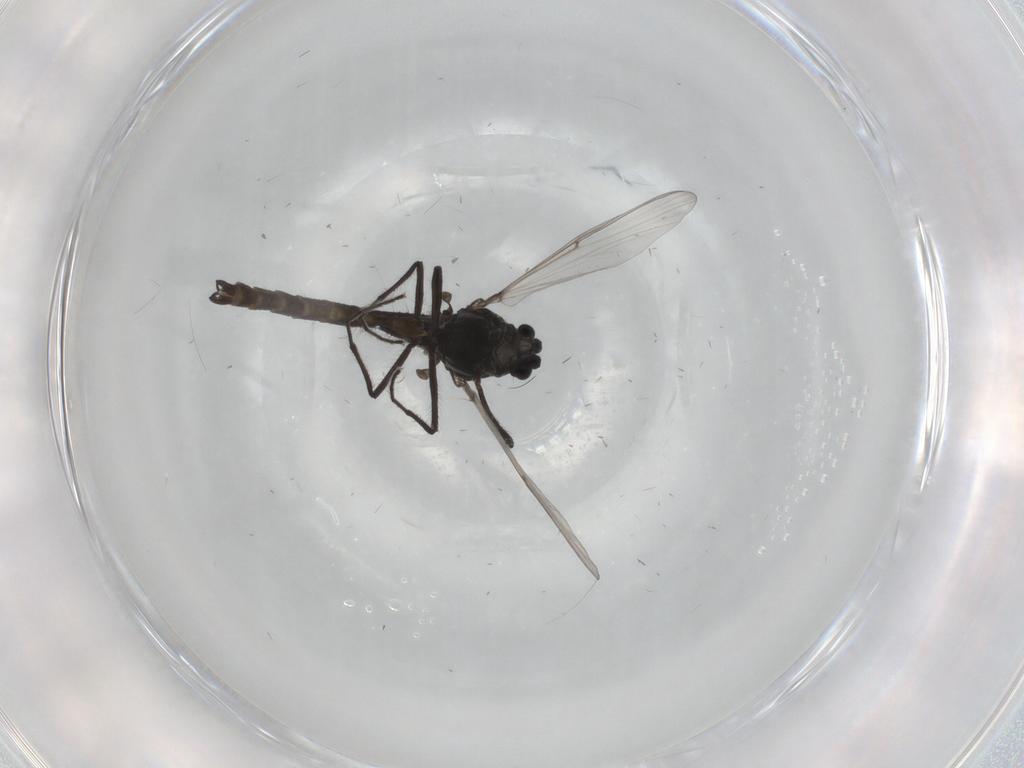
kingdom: Animalia
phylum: Arthropoda
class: Insecta
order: Diptera
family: Chironomidae
